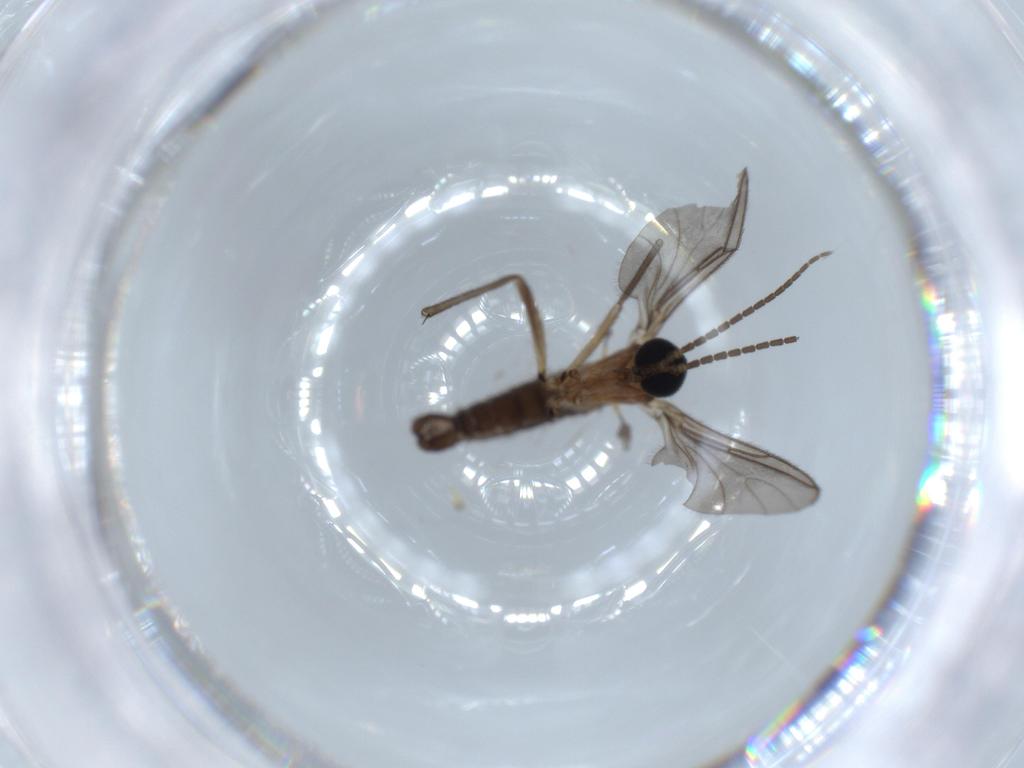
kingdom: Animalia
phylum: Arthropoda
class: Insecta
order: Diptera
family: Sciaridae
